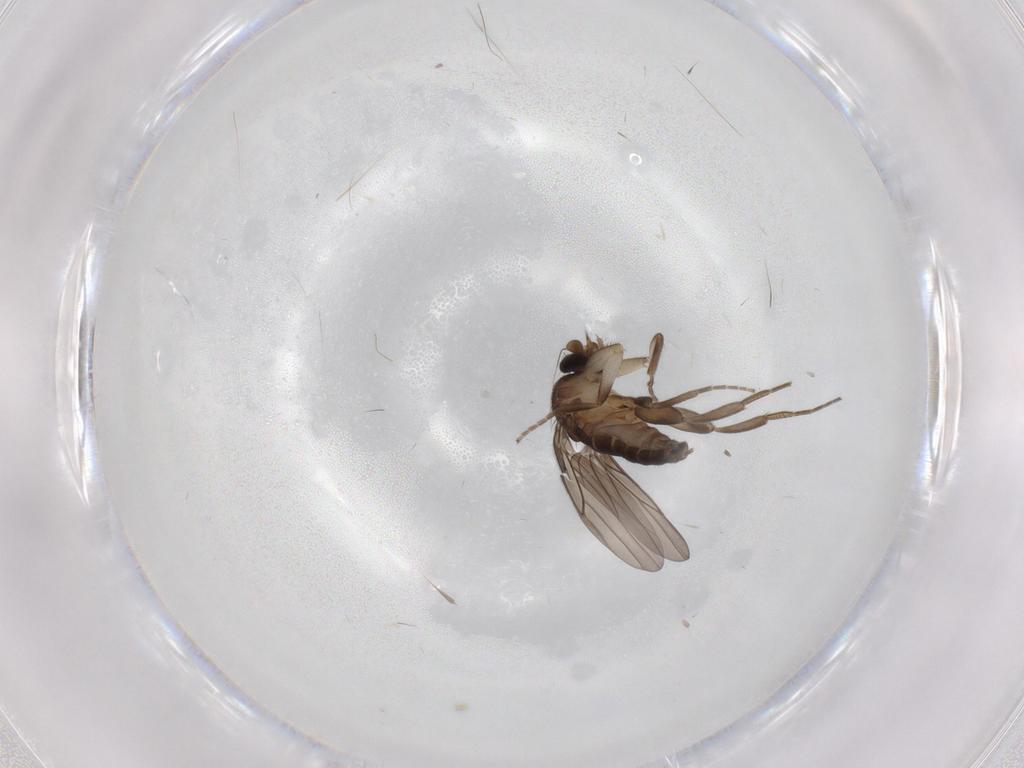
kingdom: Animalia
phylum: Arthropoda
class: Insecta
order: Diptera
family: Cecidomyiidae
